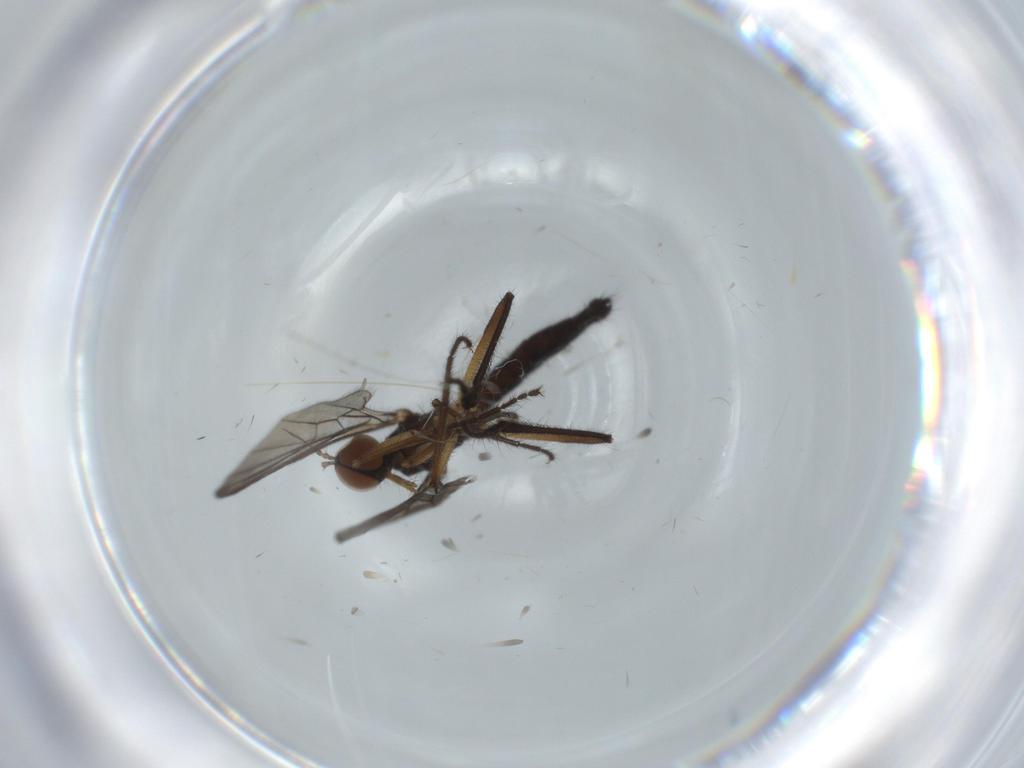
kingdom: Animalia
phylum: Arthropoda
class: Insecta
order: Diptera
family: Empididae
